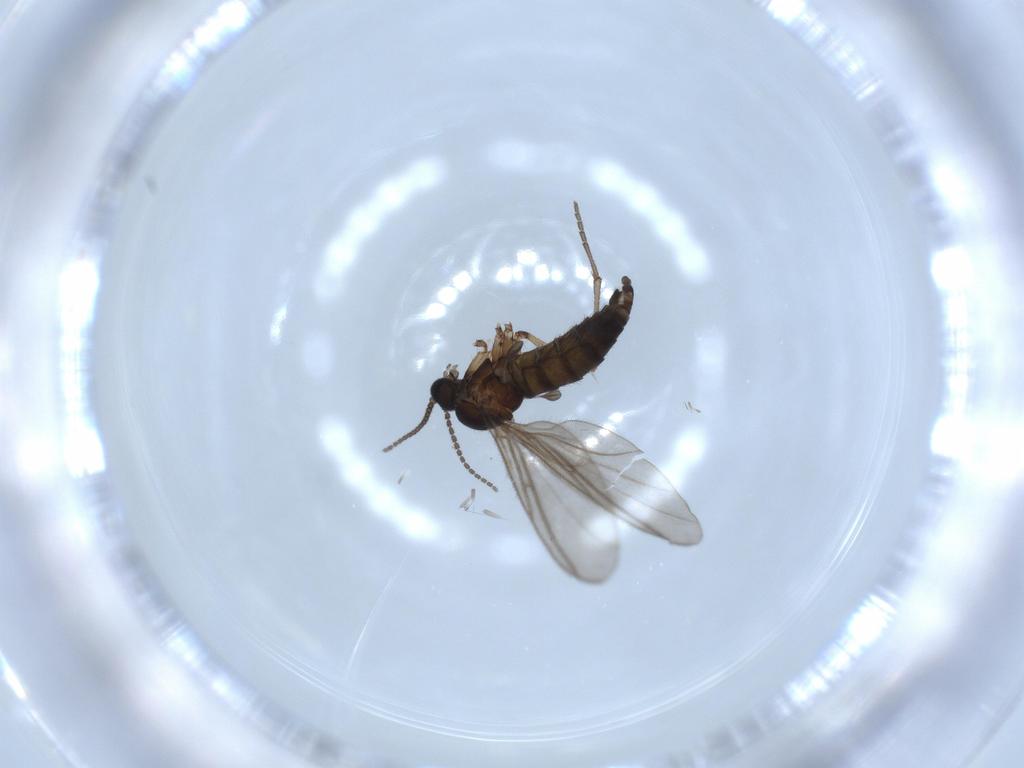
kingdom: Animalia
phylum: Arthropoda
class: Insecta
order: Diptera
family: Sciaridae
